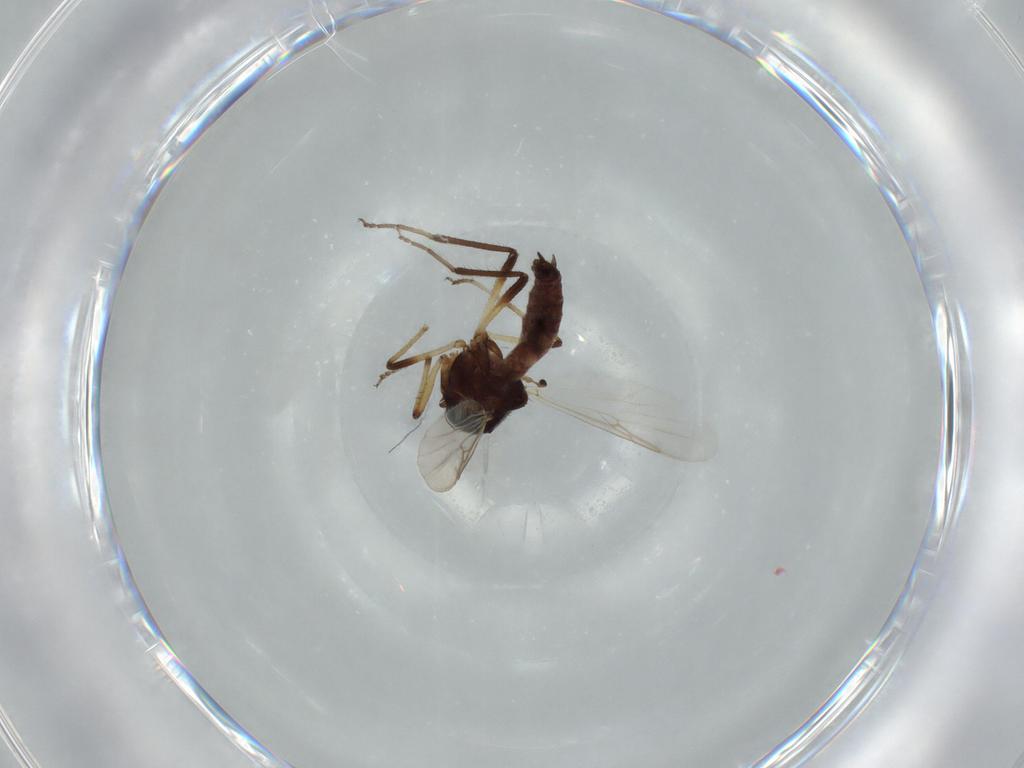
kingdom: Animalia
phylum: Arthropoda
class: Insecta
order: Diptera
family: Ceratopogonidae
